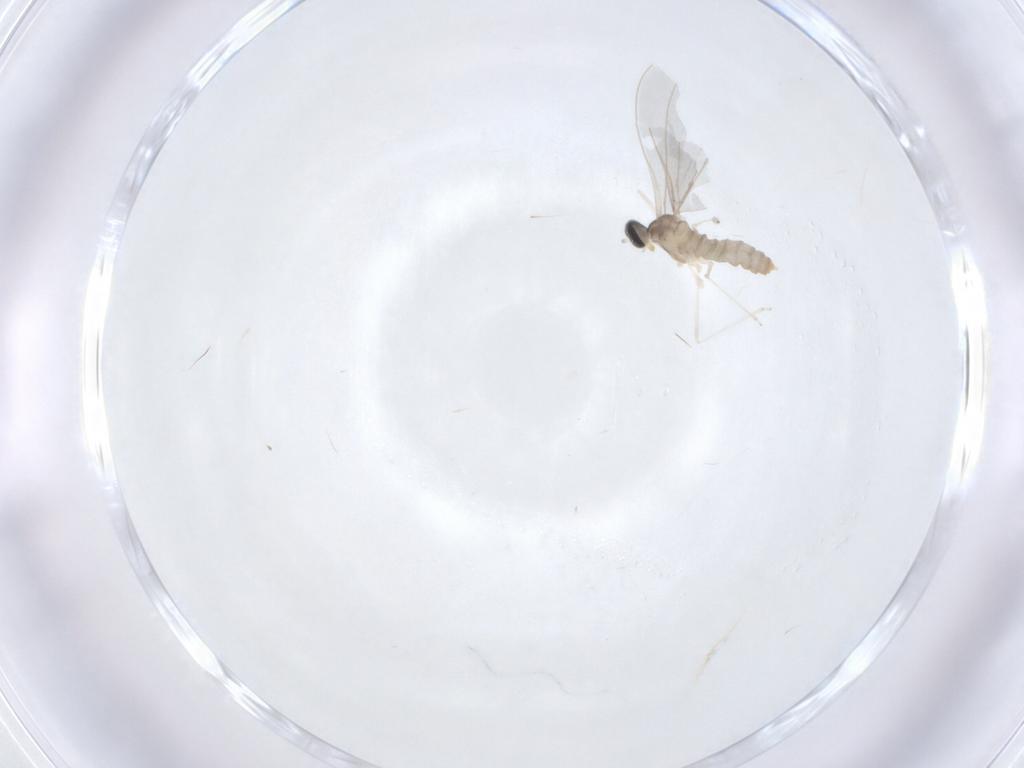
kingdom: Animalia
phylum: Arthropoda
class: Insecta
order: Diptera
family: Cecidomyiidae
